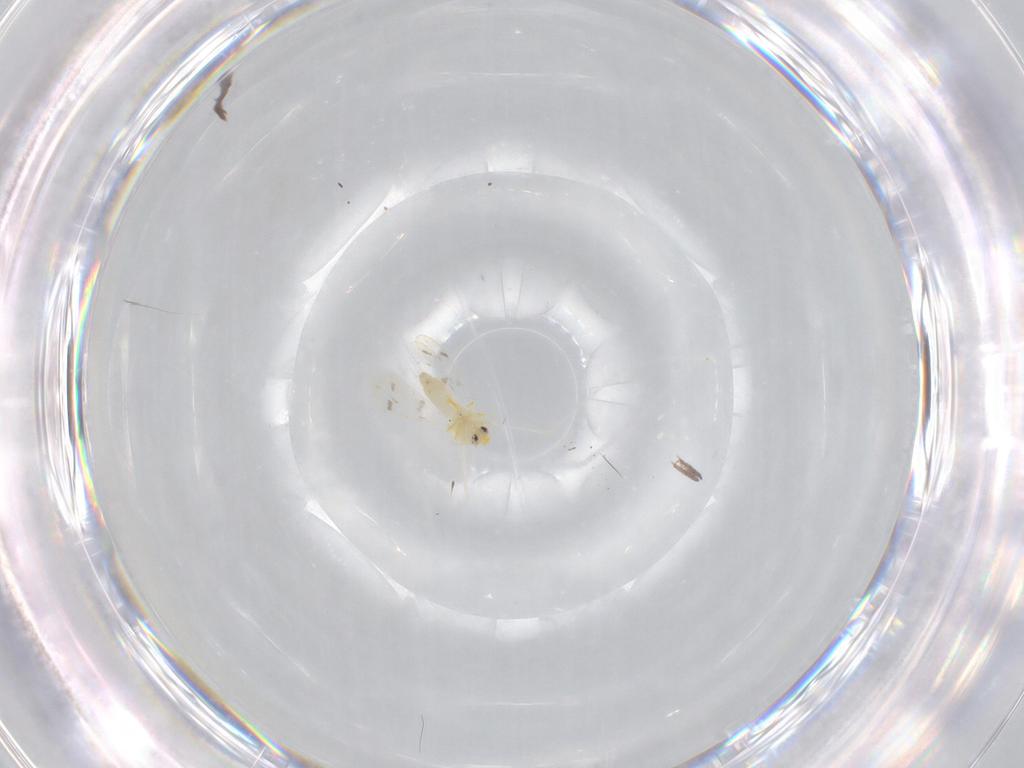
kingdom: Animalia
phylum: Arthropoda
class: Insecta
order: Hemiptera
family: Aleyrodidae
